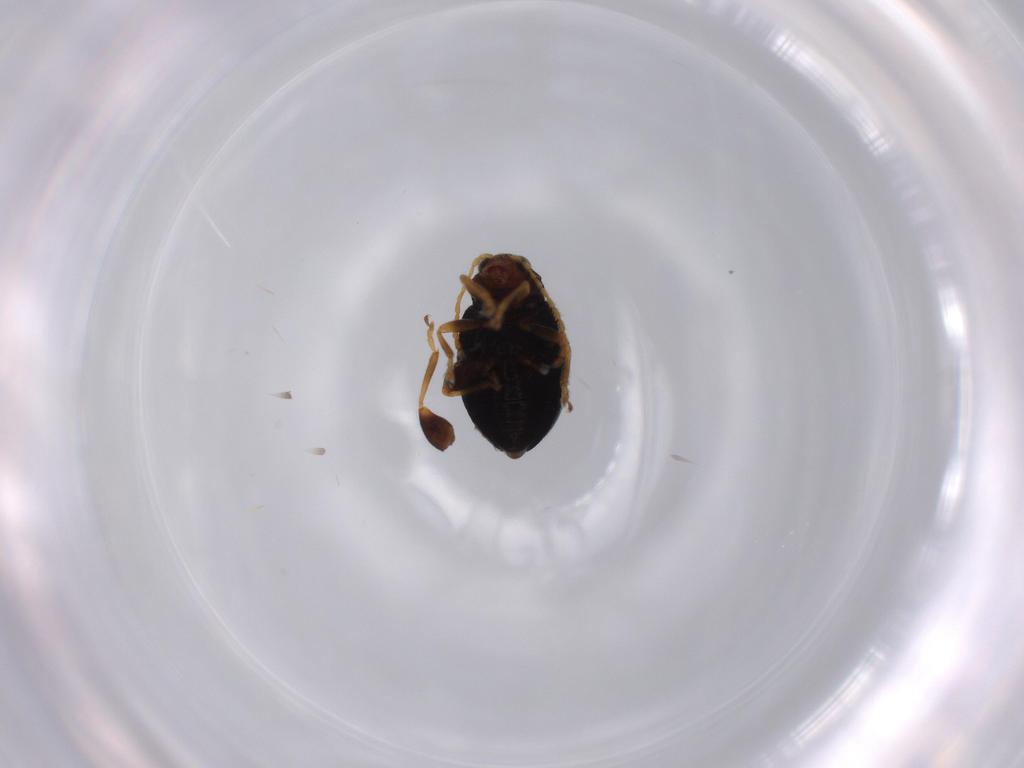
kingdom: Animalia
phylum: Arthropoda
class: Insecta
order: Coleoptera
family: Chrysomelidae
